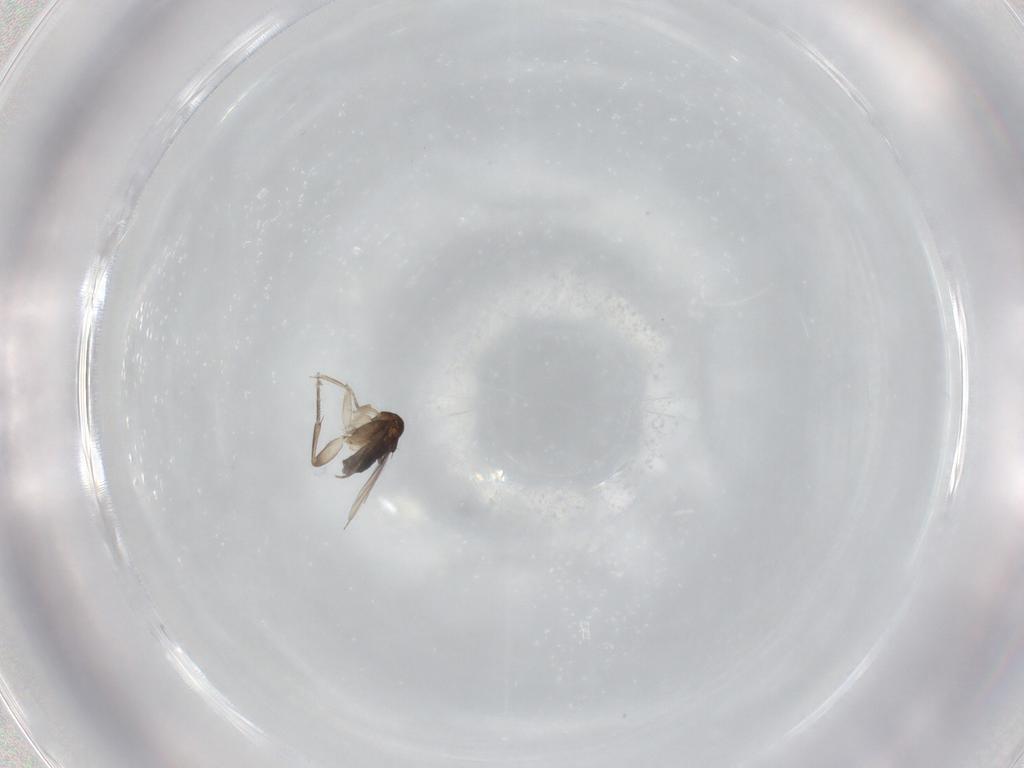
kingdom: Animalia
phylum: Arthropoda
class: Insecta
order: Diptera
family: Phoridae
